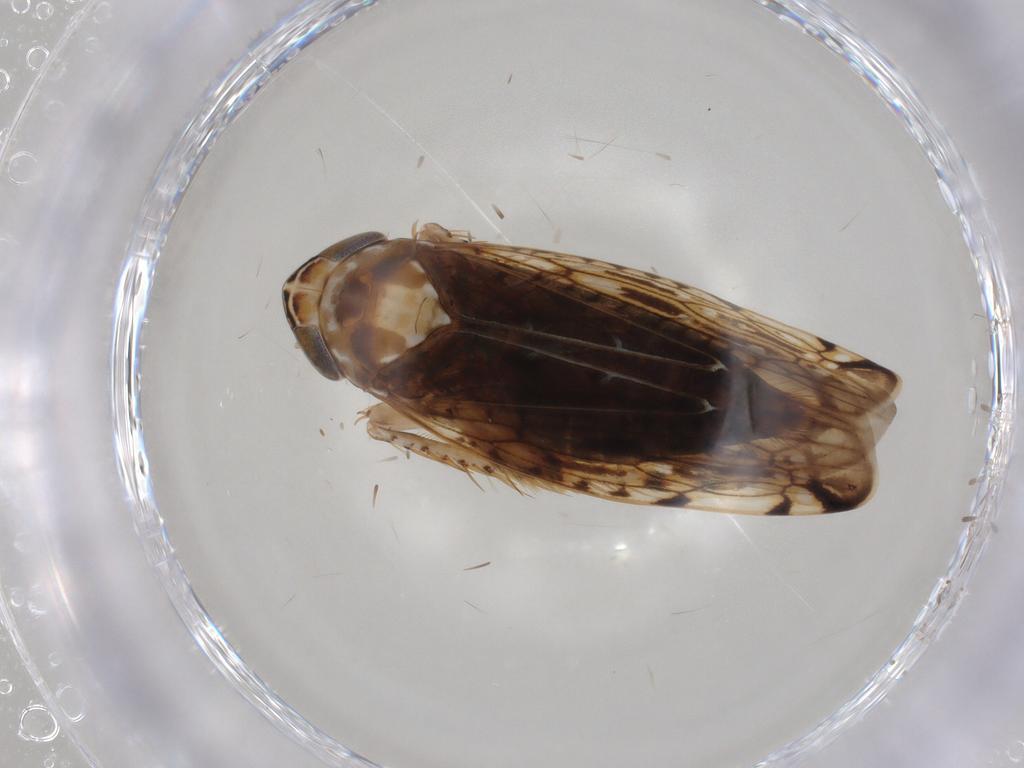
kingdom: Animalia
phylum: Arthropoda
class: Insecta
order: Hemiptera
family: Cicadellidae
